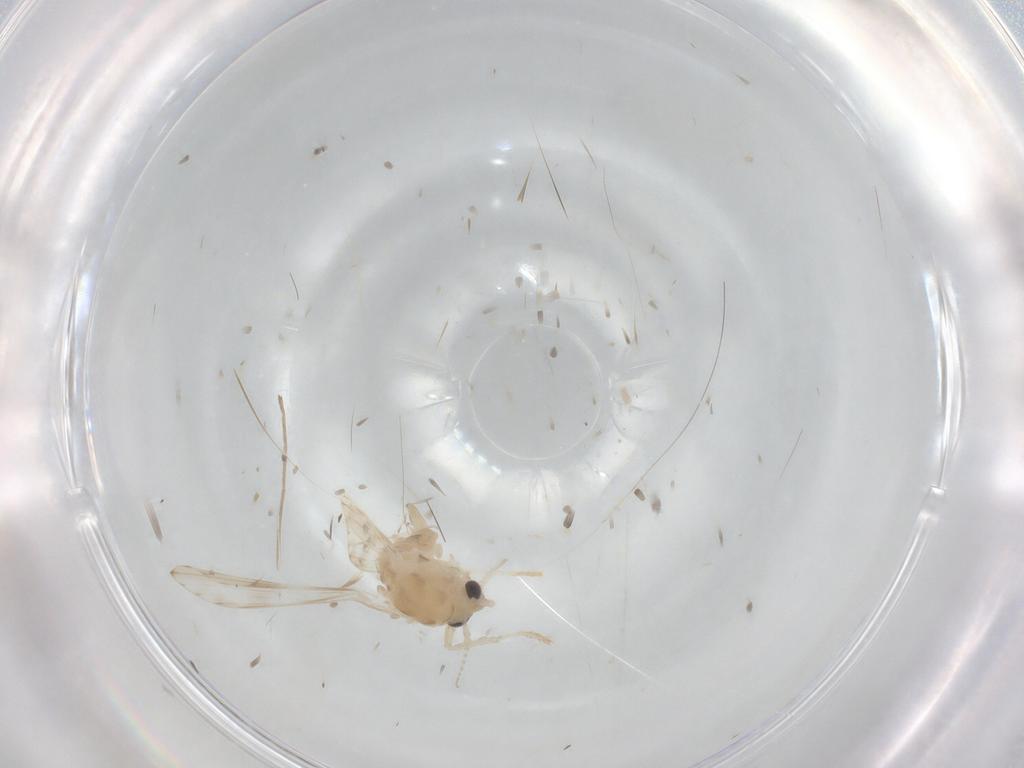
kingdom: Animalia
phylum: Arthropoda
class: Insecta
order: Diptera
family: Psychodidae
